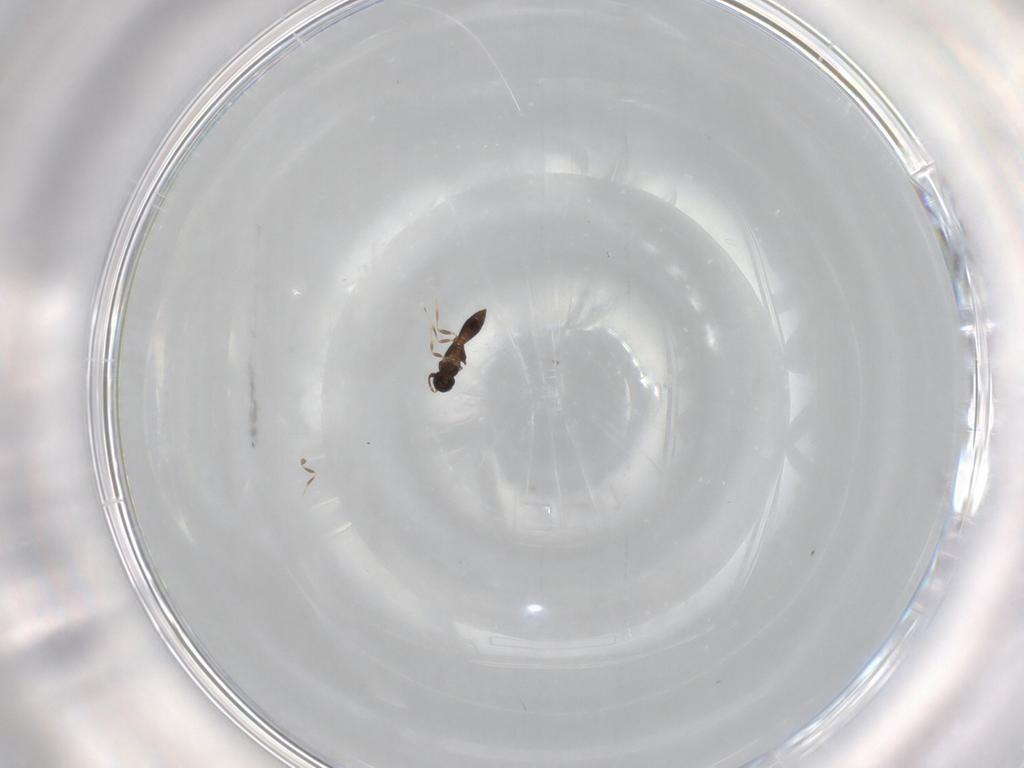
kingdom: Animalia
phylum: Arthropoda
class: Insecta
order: Hymenoptera
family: Scelionidae
